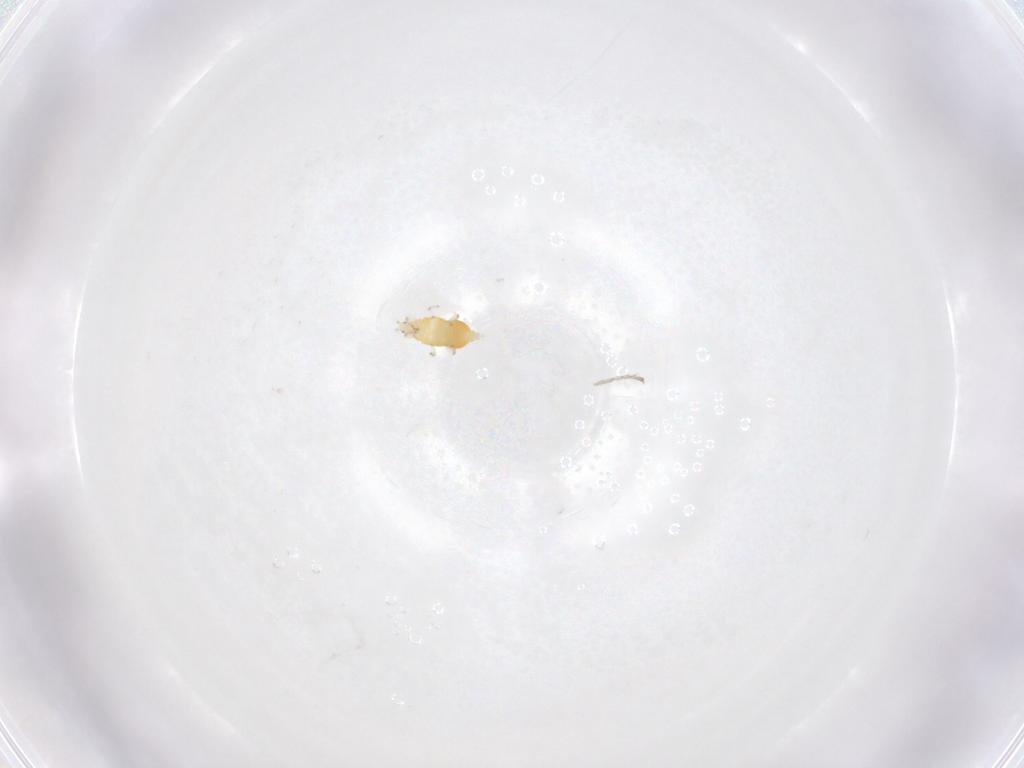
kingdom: Animalia
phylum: Arthropoda
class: Insecta
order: Thysanoptera
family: Thripidae
